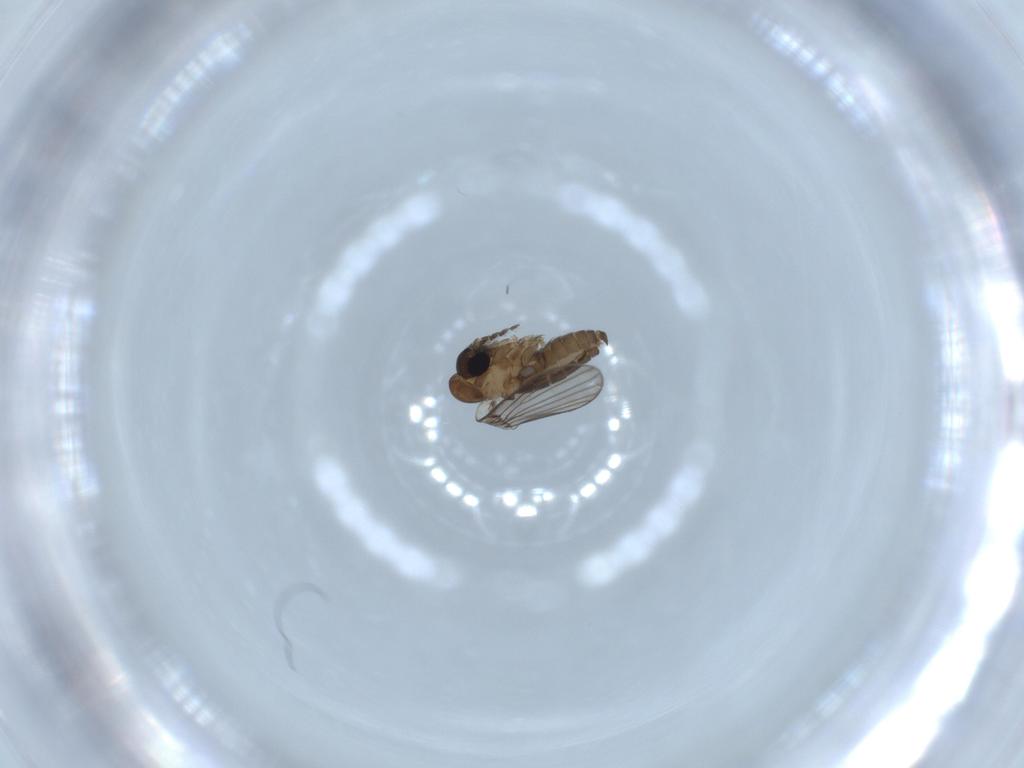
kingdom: Animalia
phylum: Arthropoda
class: Insecta
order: Diptera
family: Psychodidae
